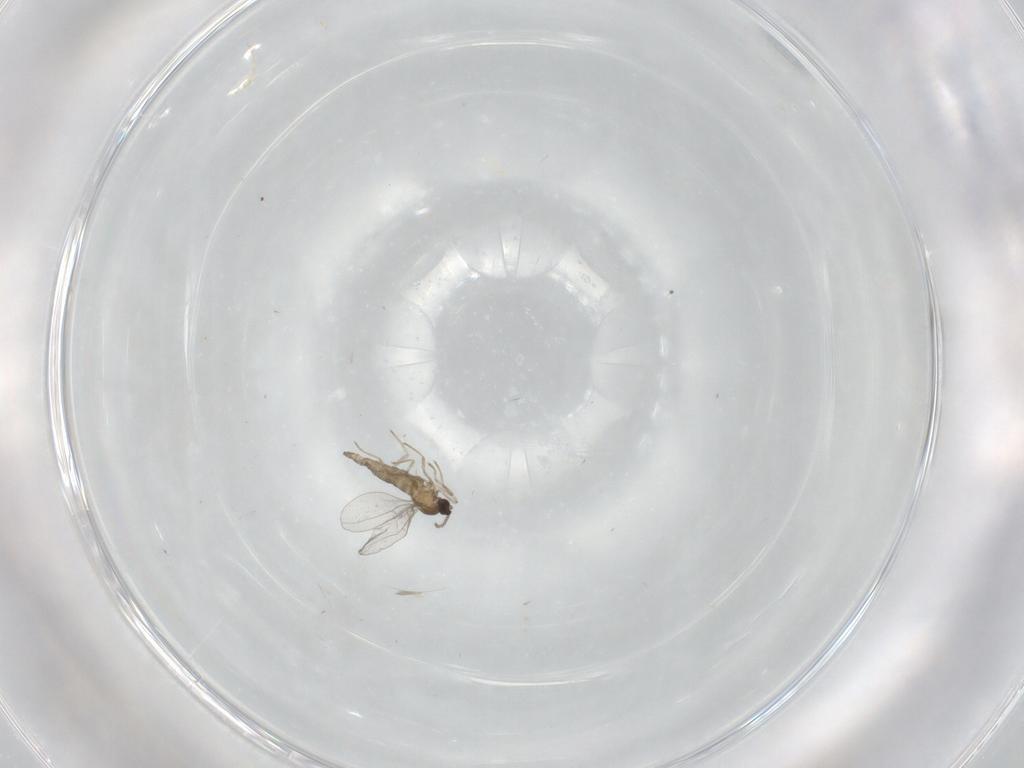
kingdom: Animalia
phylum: Arthropoda
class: Insecta
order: Diptera
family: Cecidomyiidae
